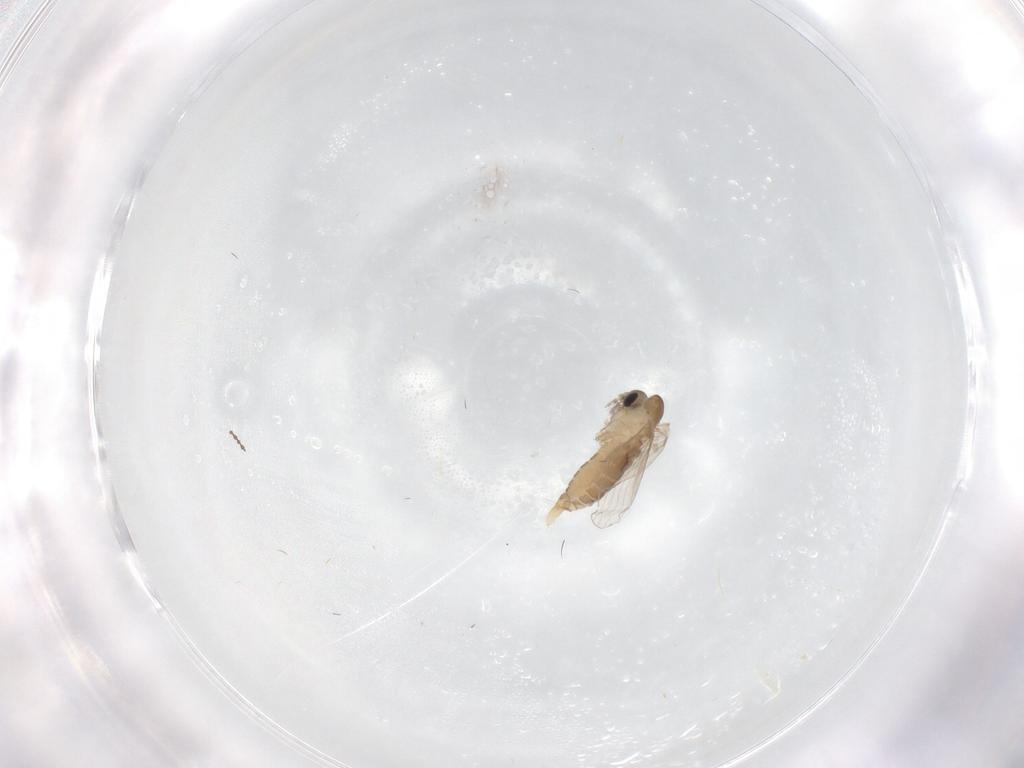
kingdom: Animalia
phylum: Arthropoda
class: Insecta
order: Diptera
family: Psychodidae
